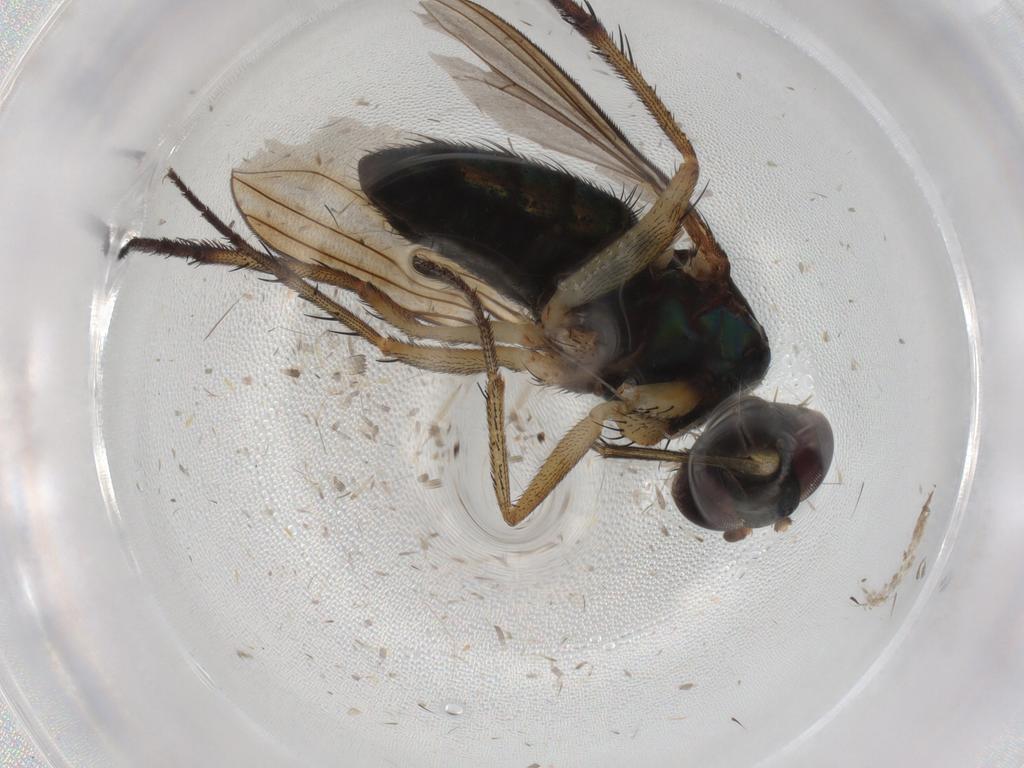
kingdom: Animalia
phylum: Arthropoda
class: Insecta
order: Diptera
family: Dolichopodidae
